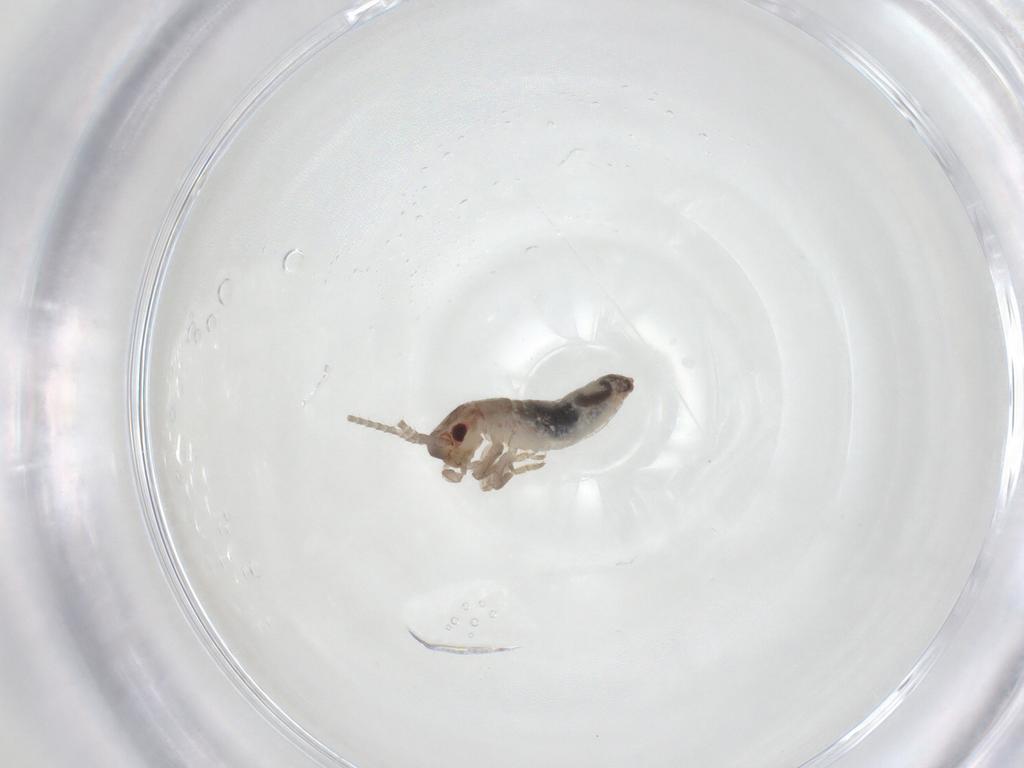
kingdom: Animalia
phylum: Arthropoda
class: Insecta
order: Orthoptera
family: Mogoplistidae
